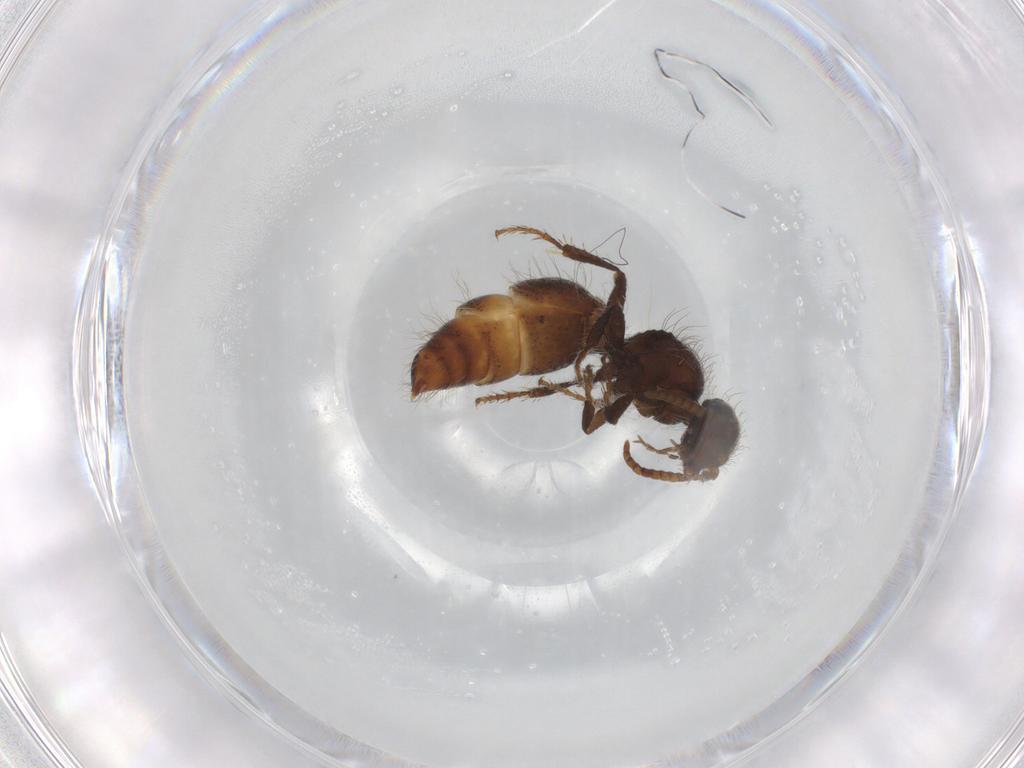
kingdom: Animalia
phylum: Arthropoda
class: Insecta
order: Hymenoptera
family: Mutillidae
